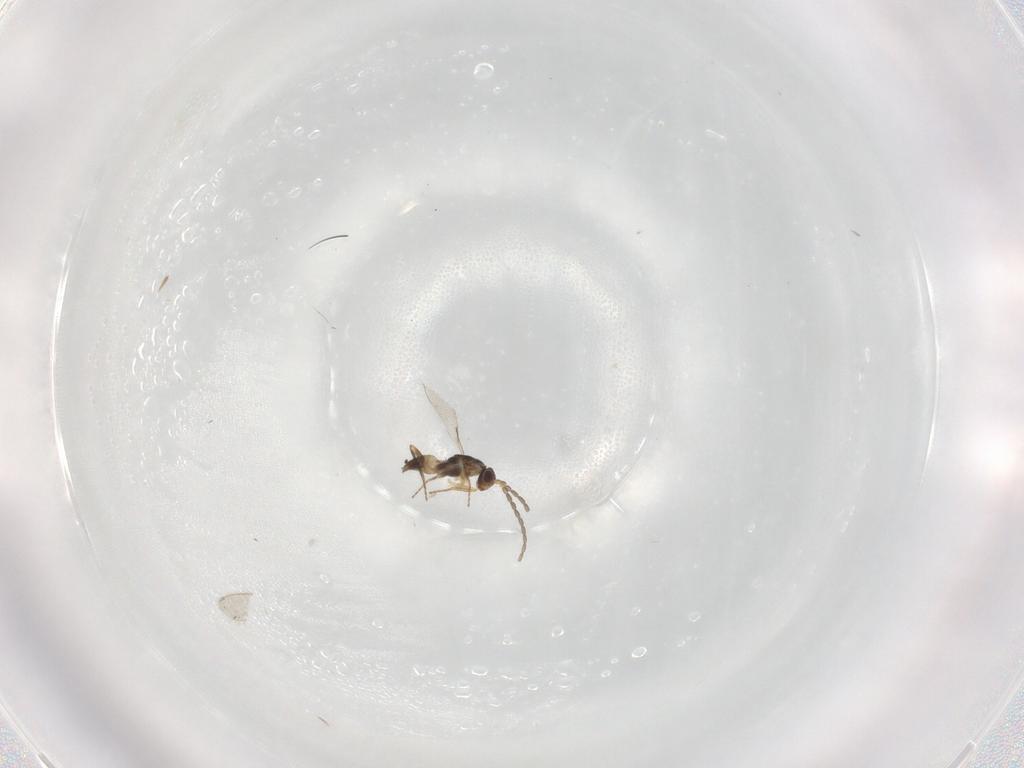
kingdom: Animalia
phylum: Arthropoda
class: Insecta
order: Hymenoptera
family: Mymaridae
